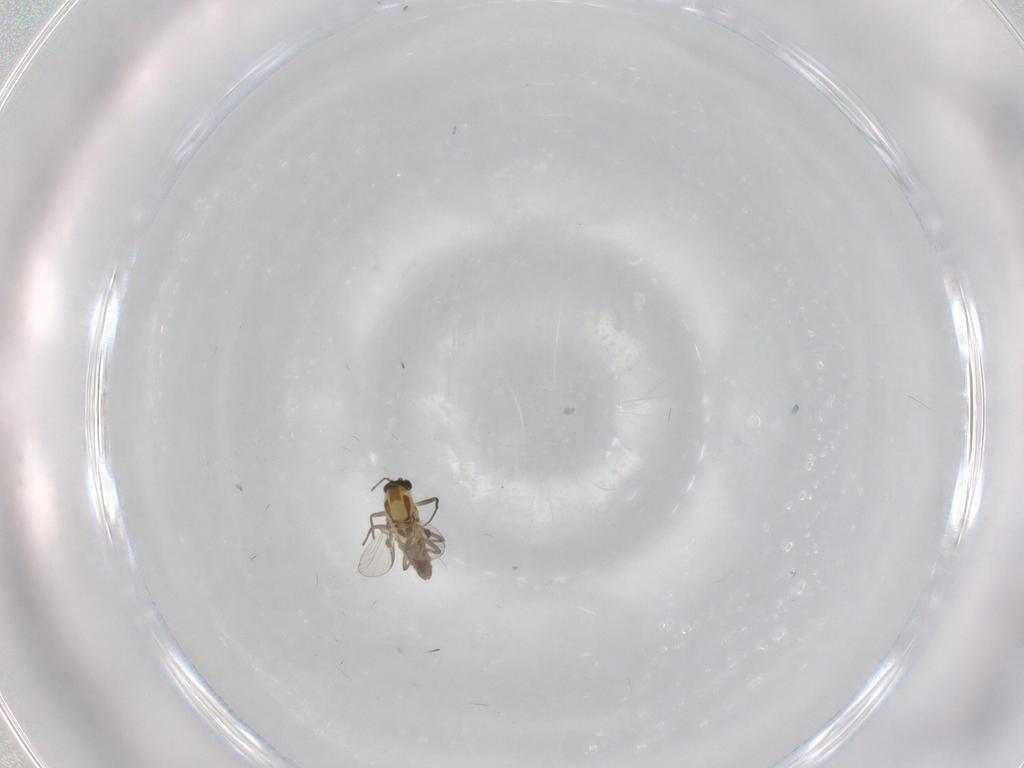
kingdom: Animalia
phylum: Arthropoda
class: Insecta
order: Diptera
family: Chironomidae
